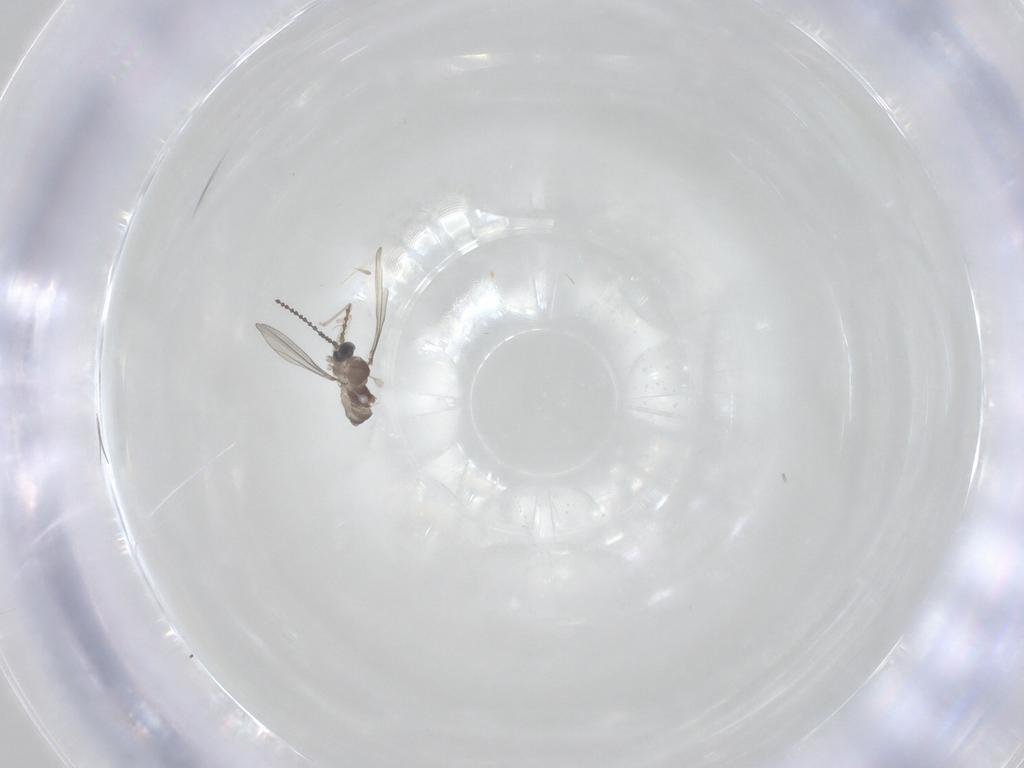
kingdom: Animalia
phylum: Arthropoda
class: Insecta
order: Diptera
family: Cecidomyiidae
